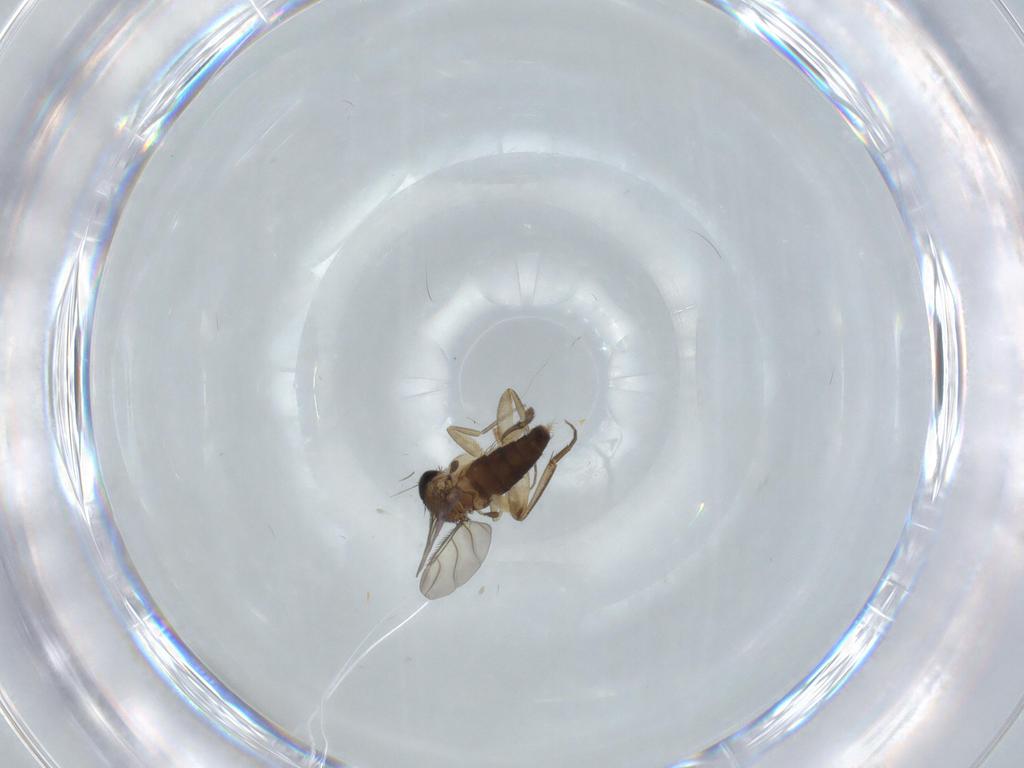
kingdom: Animalia
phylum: Arthropoda
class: Insecta
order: Diptera
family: Phoridae
